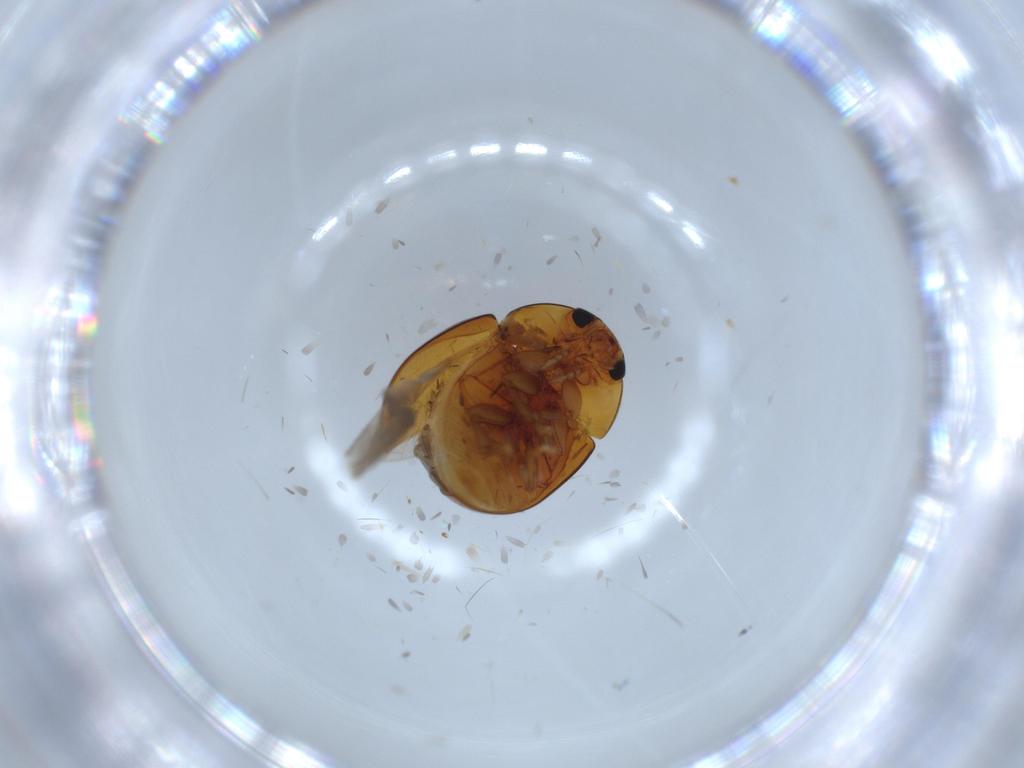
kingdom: Animalia
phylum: Arthropoda
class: Insecta
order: Coleoptera
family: Phalacridae
